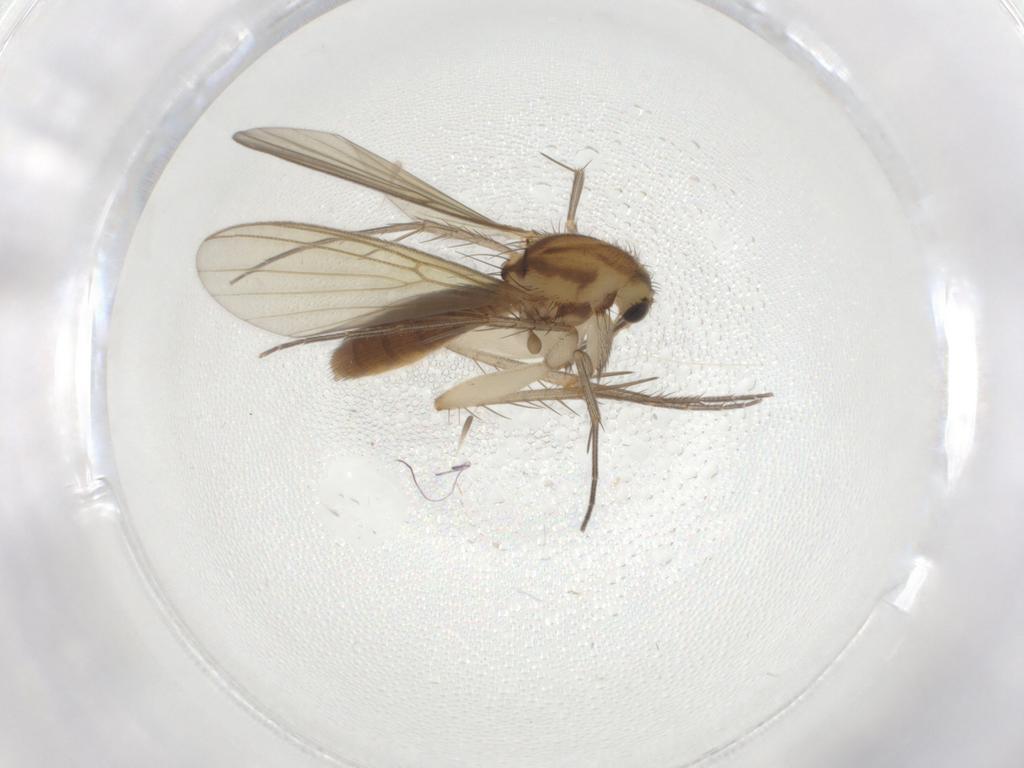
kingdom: Animalia
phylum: Arthropoda
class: Insecta
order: Diptera
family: Mycetophilidae
